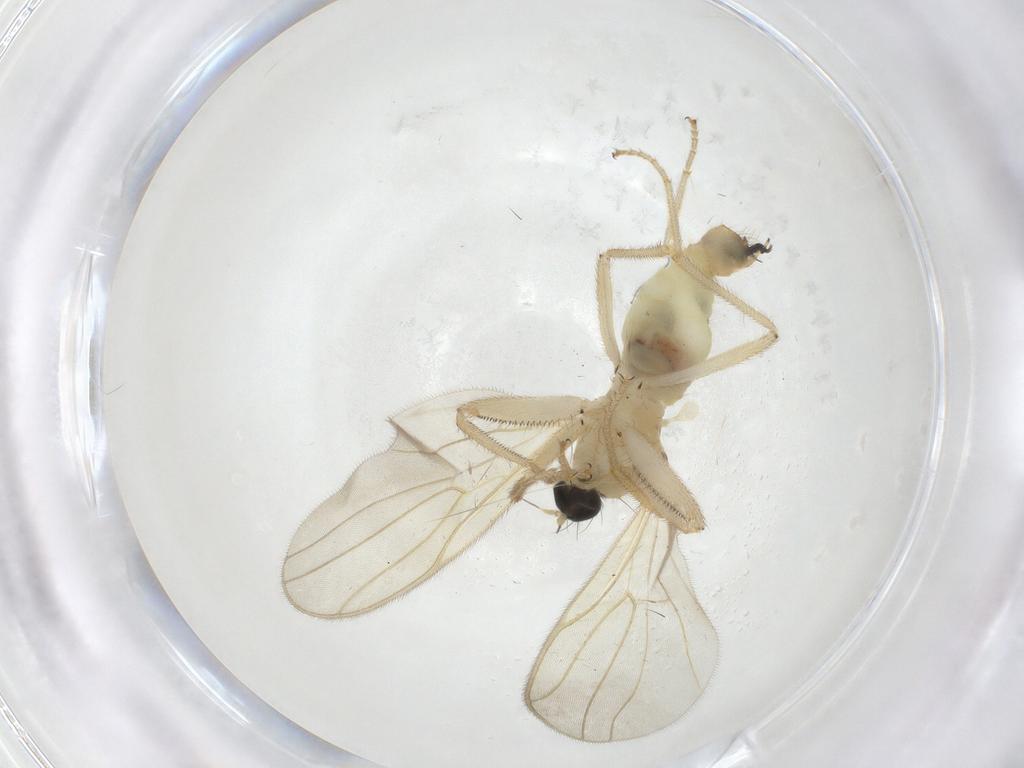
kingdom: Animalia
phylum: Arthropoda
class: Insecta
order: Diptera
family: Hybotidae
